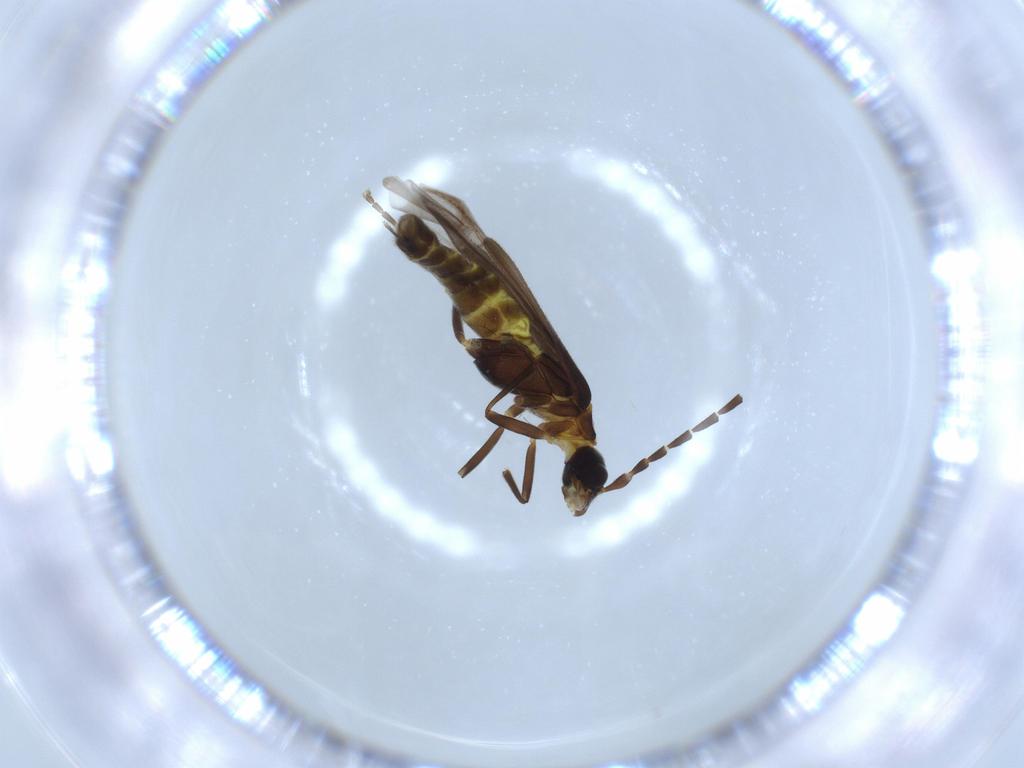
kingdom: Animalia
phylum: Arthropoda
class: Insecta
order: Coleoptera
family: Cantharidae
